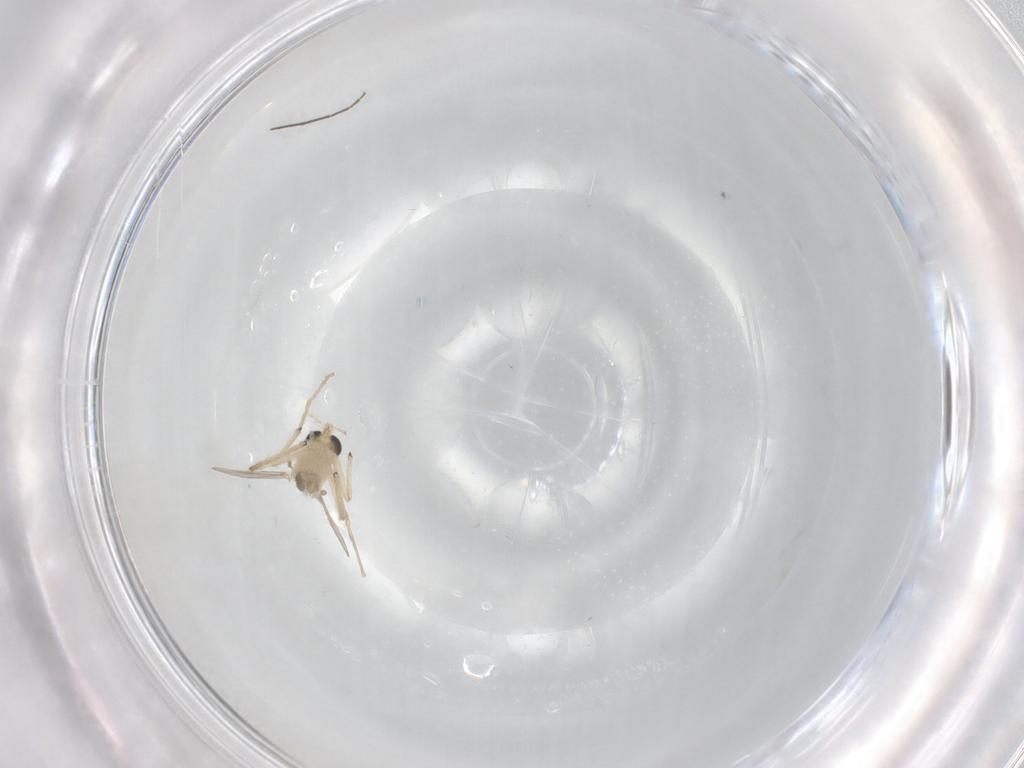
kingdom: Animalia
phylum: Arthropoda
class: Insecta
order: Diptera
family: Chironomidae
